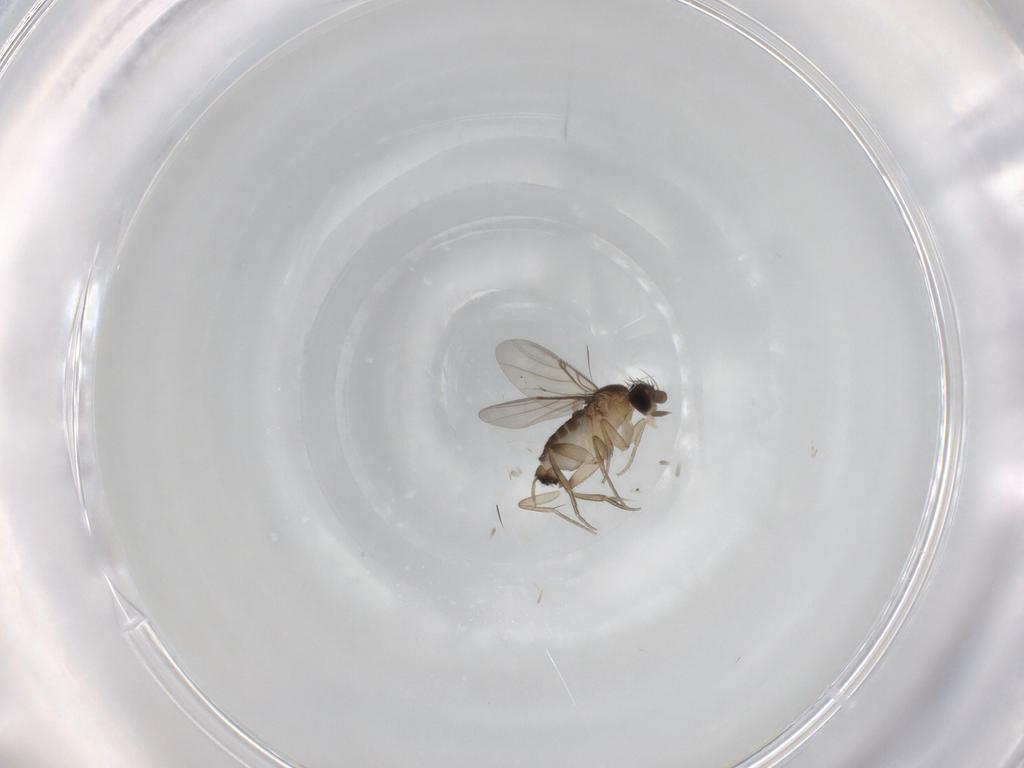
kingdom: Animalia
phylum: Arthropoda
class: Insecta
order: Diptera
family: Phoridae
